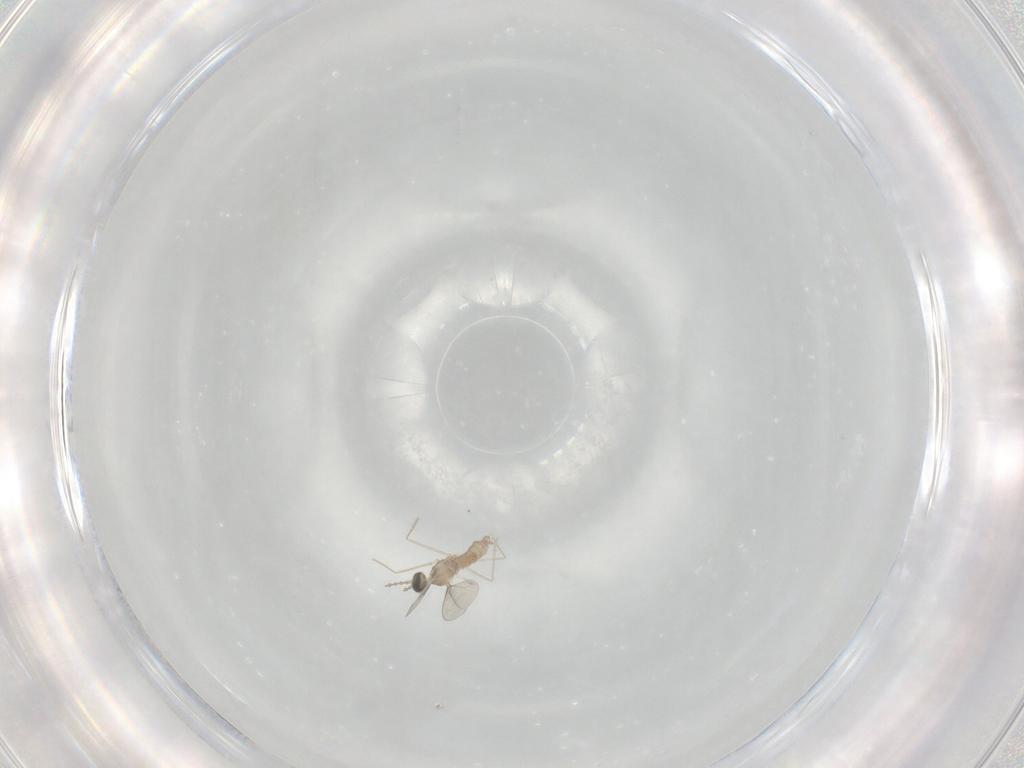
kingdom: Animalia
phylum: Arthropoda
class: Insecta
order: Diptera
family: Cecidomyiidae
